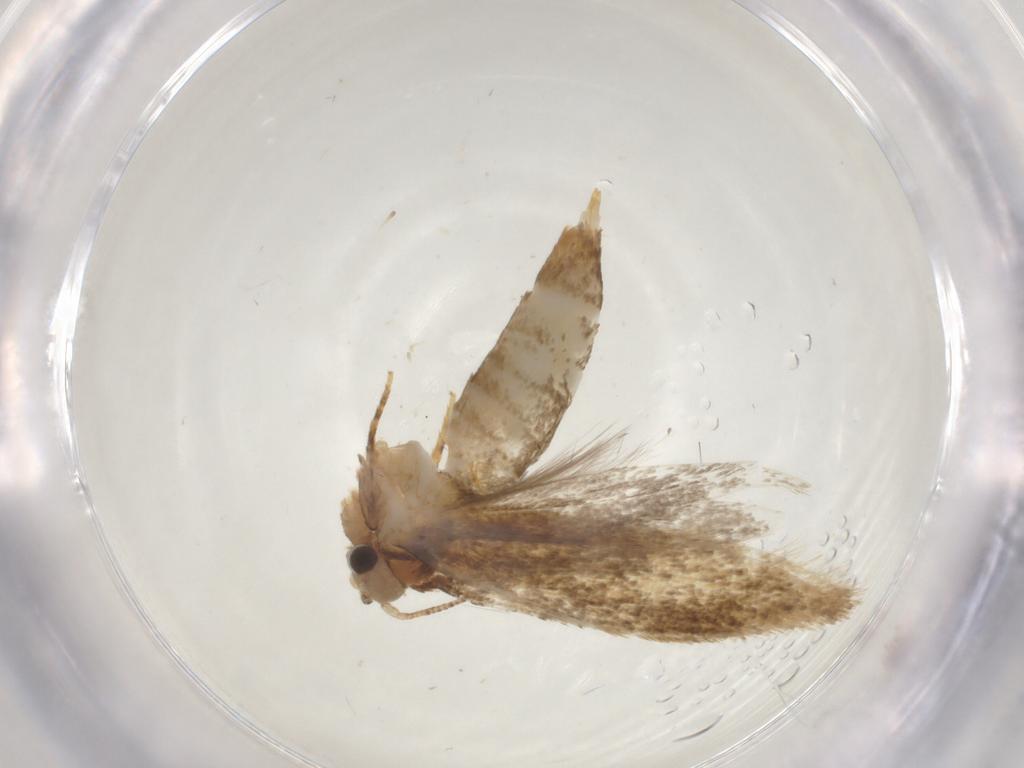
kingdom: Animalia
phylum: Arthropoda
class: Insecta
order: Lepidoptera
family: Tineidae
